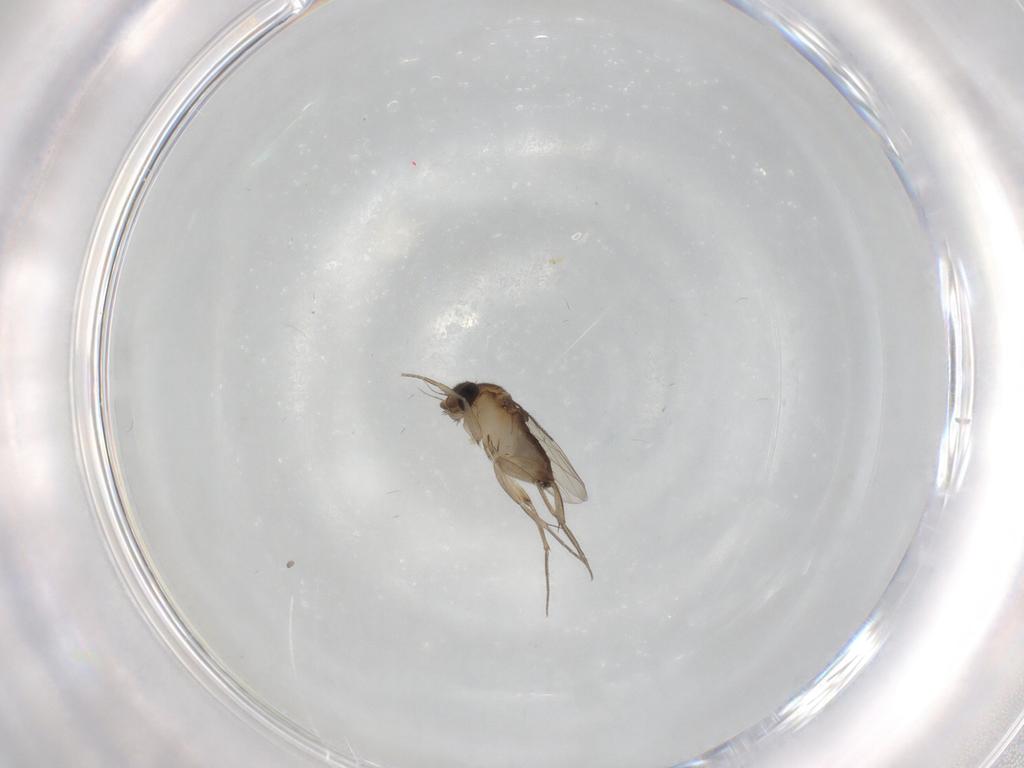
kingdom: Animalia
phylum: Arthropoda
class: Insecta
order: Diptera
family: Phoridae
